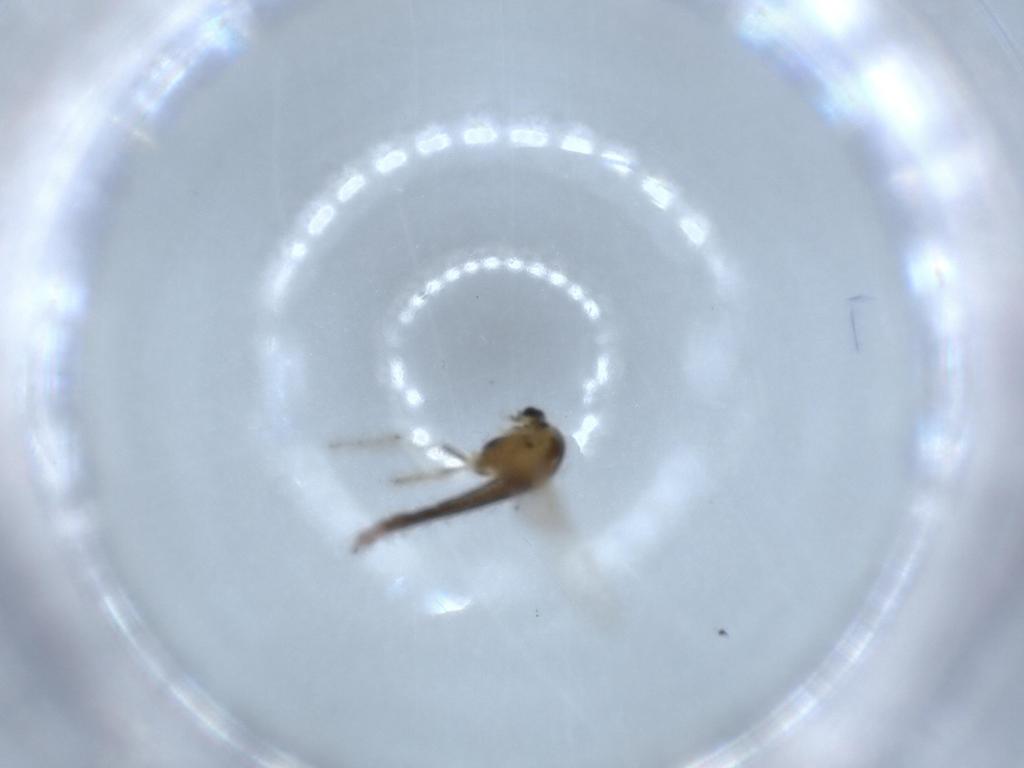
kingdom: Animalia
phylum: Arthropoda
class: Insecta
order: Diptera
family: Chironomidae
